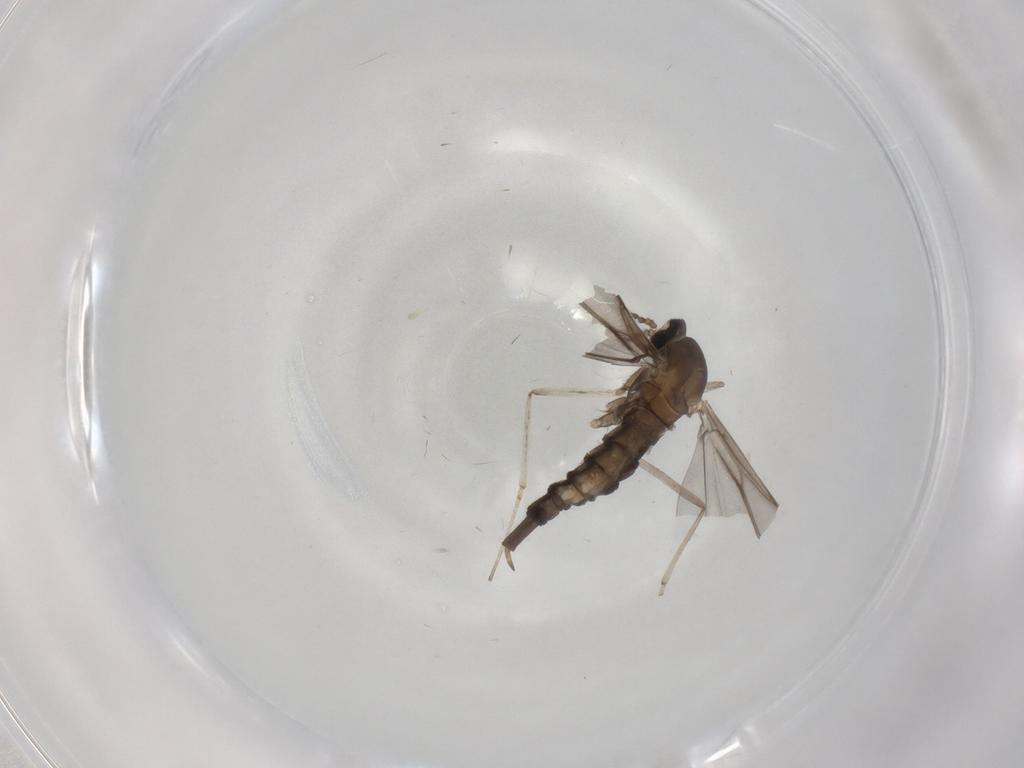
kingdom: Animalia
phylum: Arthropoda
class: Insecta
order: Diptera
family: Cecidomyiidae
